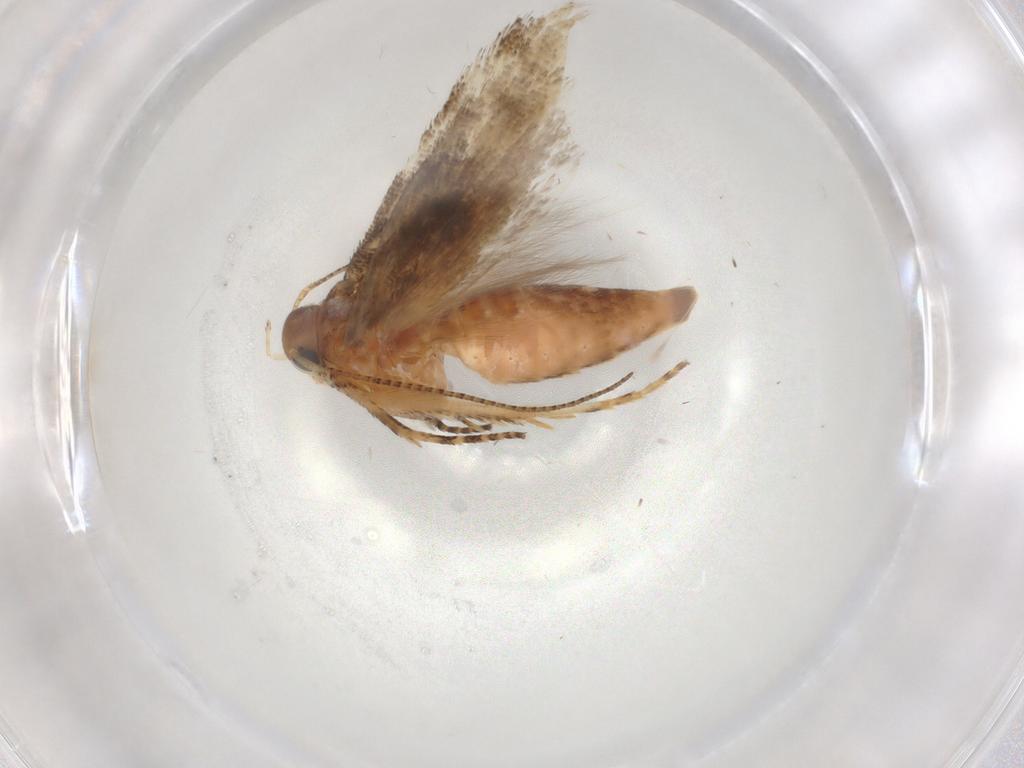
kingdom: Animalia
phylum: Arthropoda
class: Insecta
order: Lepidoptera
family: Gelechiidae
